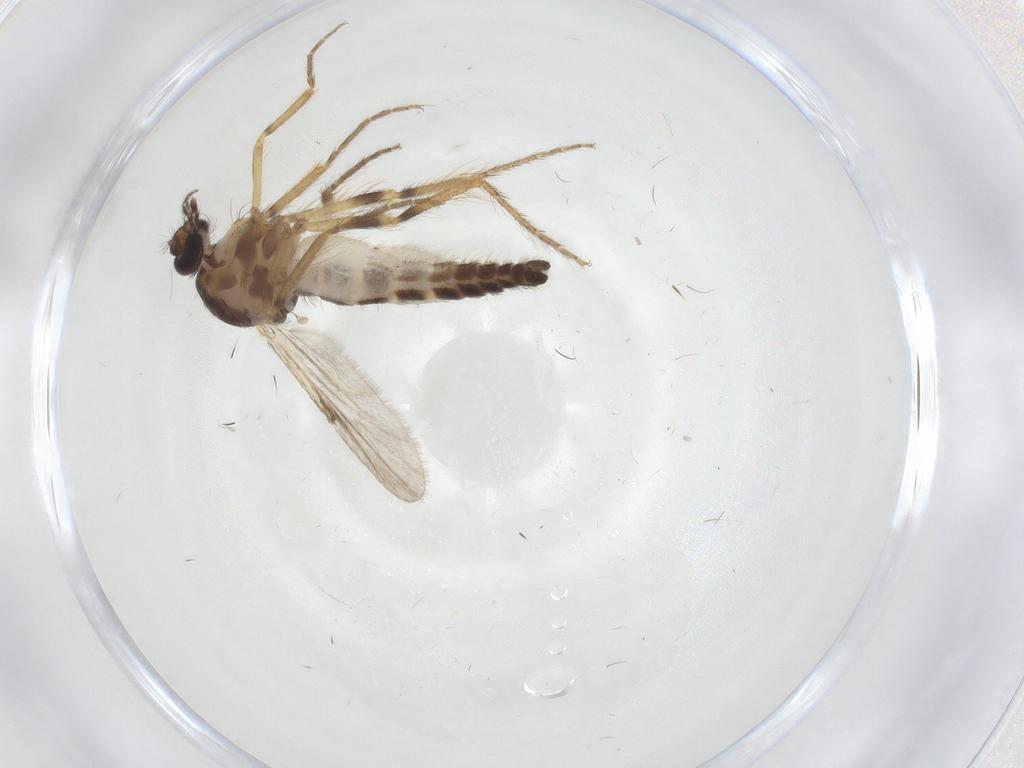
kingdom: Animalia
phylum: Arthropoda
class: Insecta
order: Diptera
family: Ceratopogonidae
